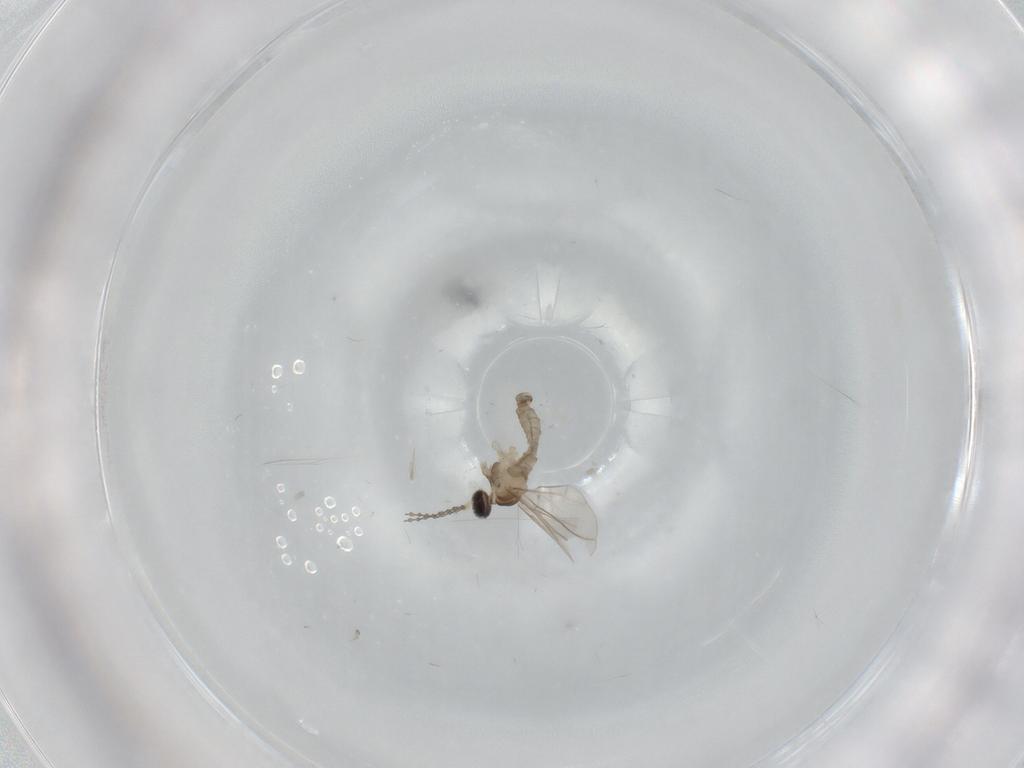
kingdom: Animalia
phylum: Arthropoda
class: Insecta
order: Diptera
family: Cecidomyiidae
